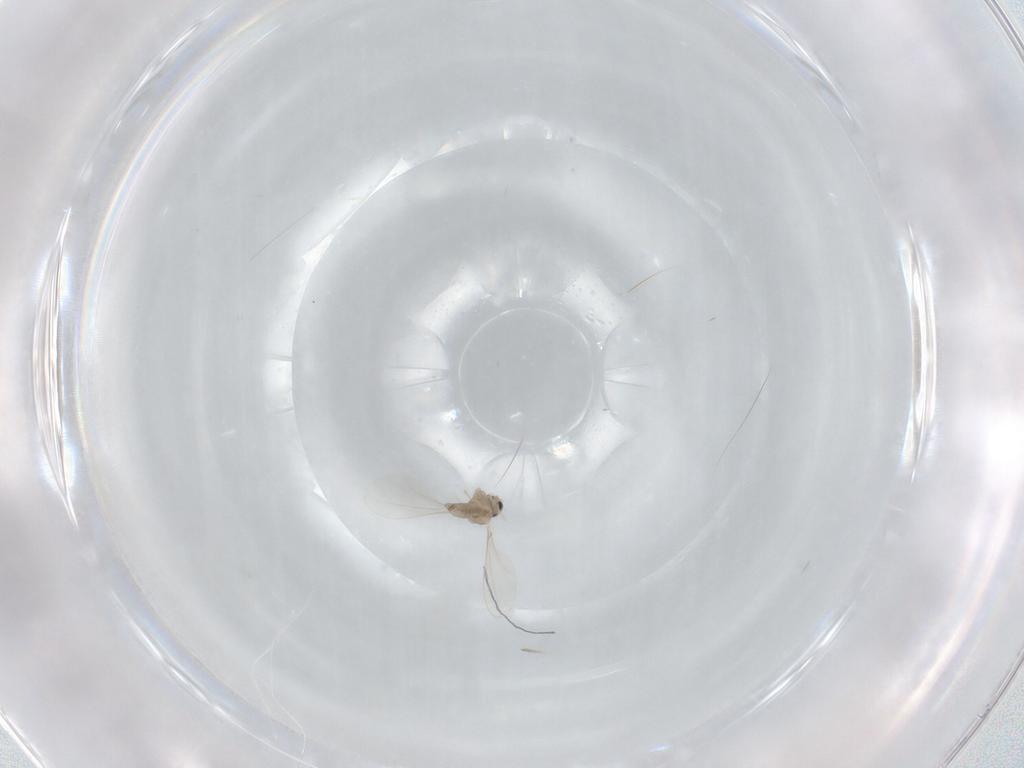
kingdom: Animalia
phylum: Arthropoda
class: Insecta
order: Diptera
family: Cecidomyiidae
